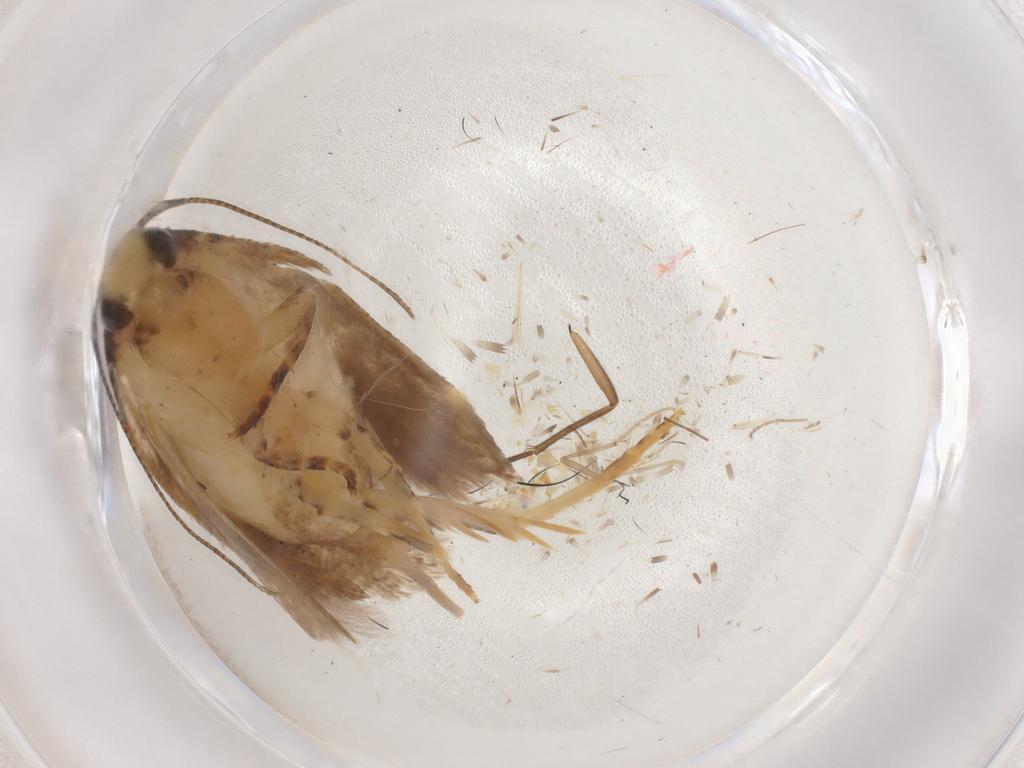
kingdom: Animalia
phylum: Arthropoda
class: Insecta
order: Lepidoptera
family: Gelechiidae
